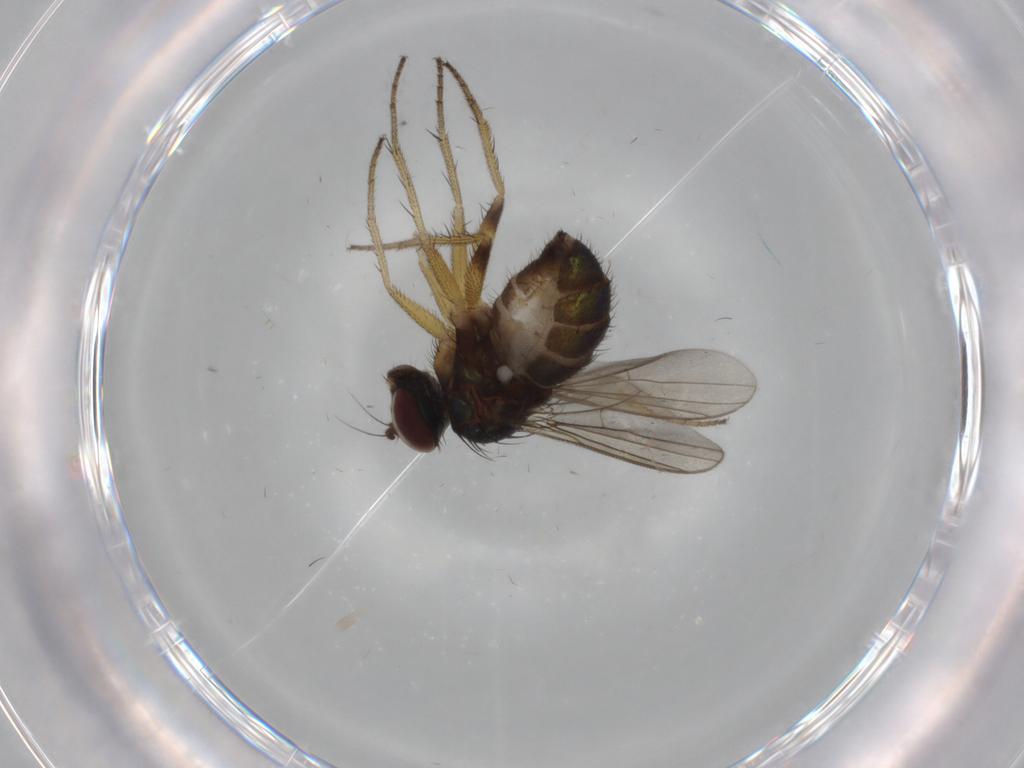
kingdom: Animalia
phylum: Arthropoda
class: Insecta
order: Diptera
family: Dolichopodidae
